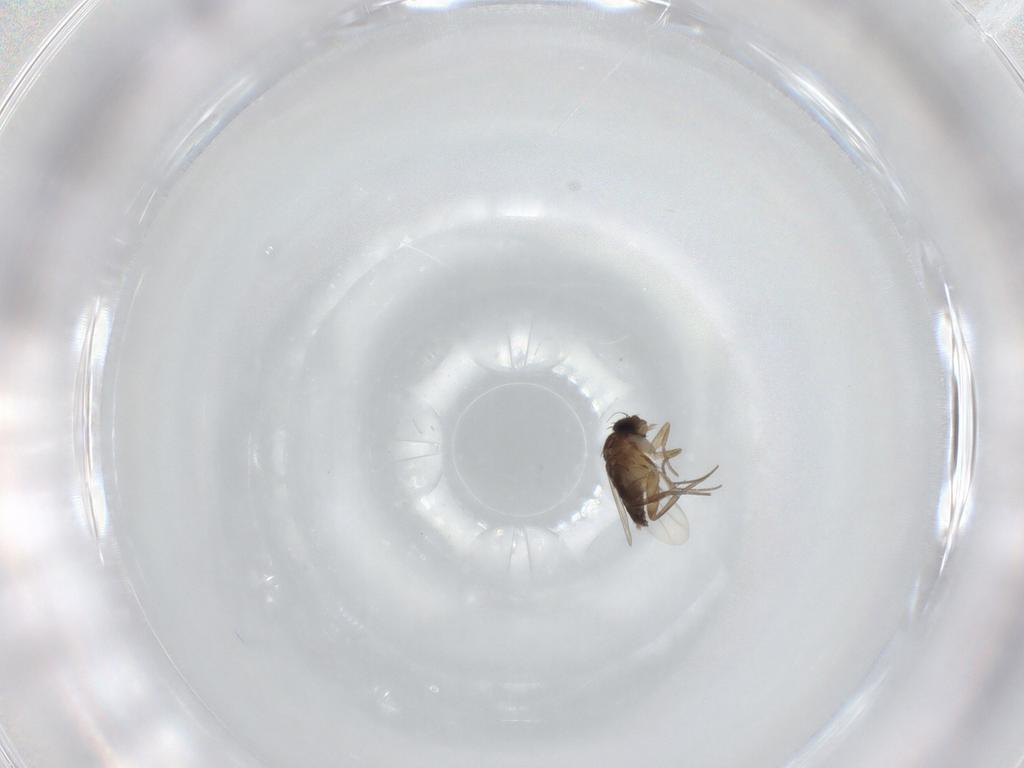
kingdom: Animalia
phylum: Arthropoda
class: Insecta
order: Diptera
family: Phoridae
